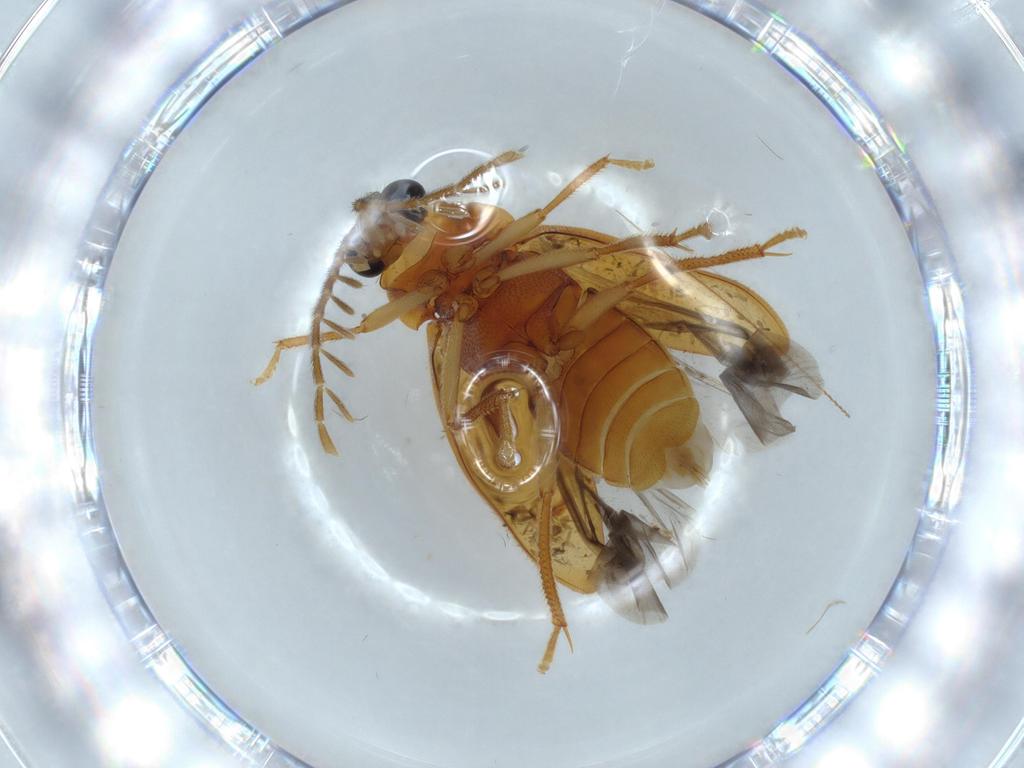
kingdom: Animalia
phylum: Arthropoda
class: Insecta
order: Coleoptera
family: Ptilodactylidae
